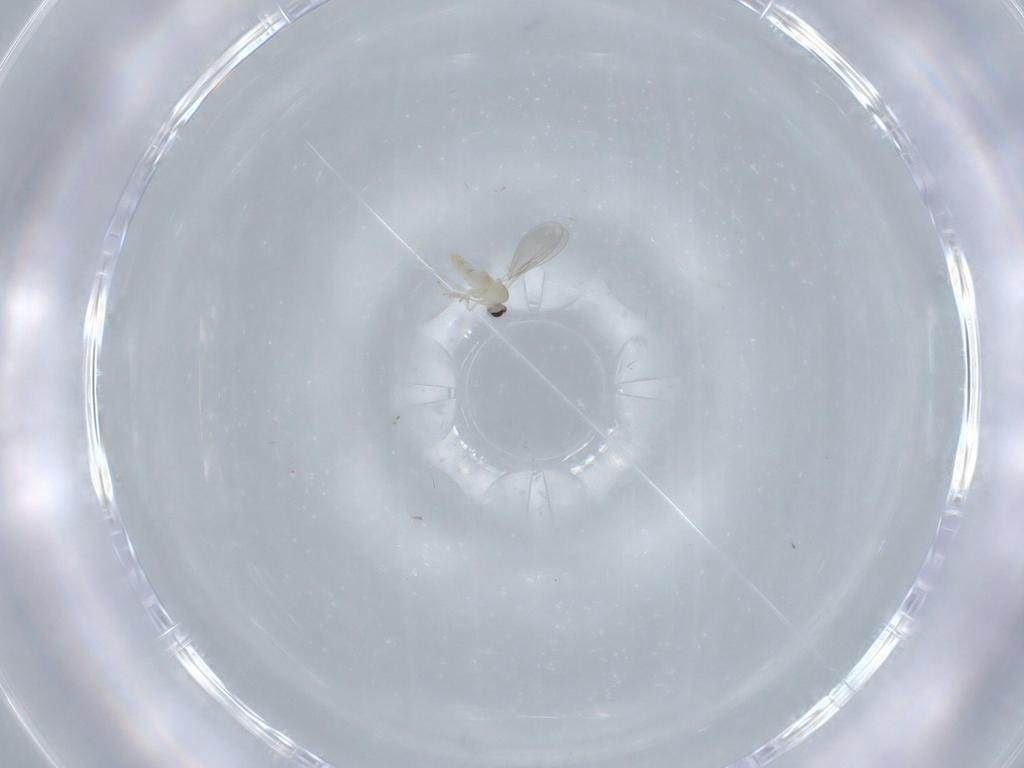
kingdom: Animalia
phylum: Arthropoda
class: Insecta
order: Diptera
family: Cecidomyiidae
